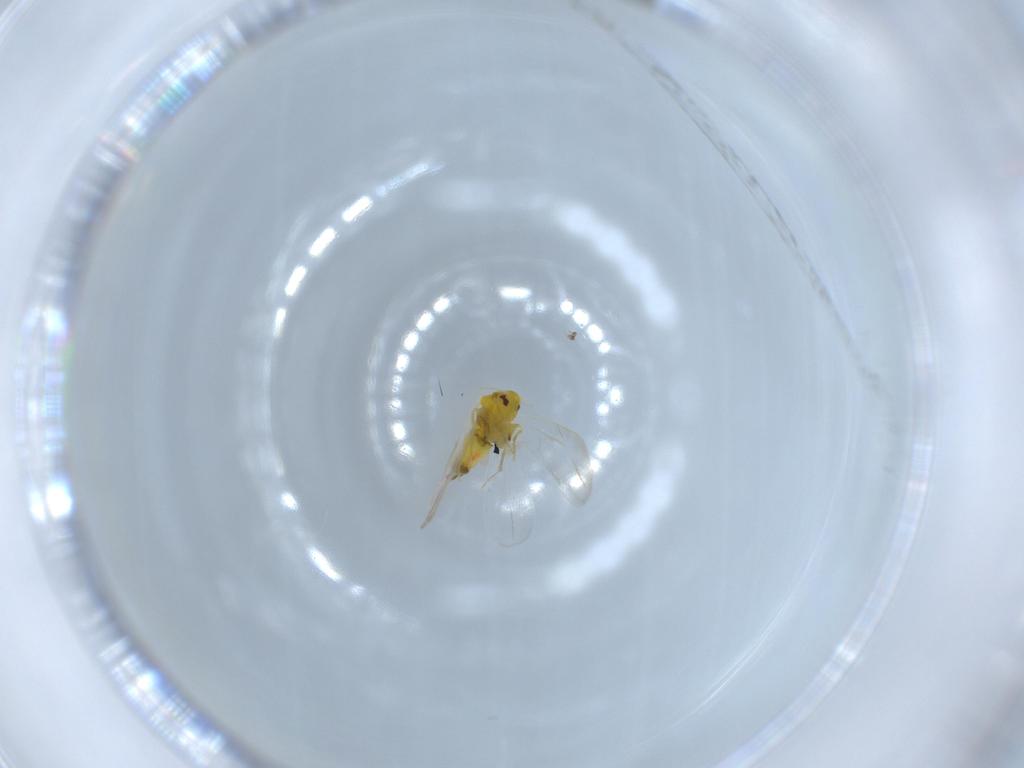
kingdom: Animalia
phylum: Arthropoda
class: Insecta
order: Hemiptera
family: Aleyrodidae
